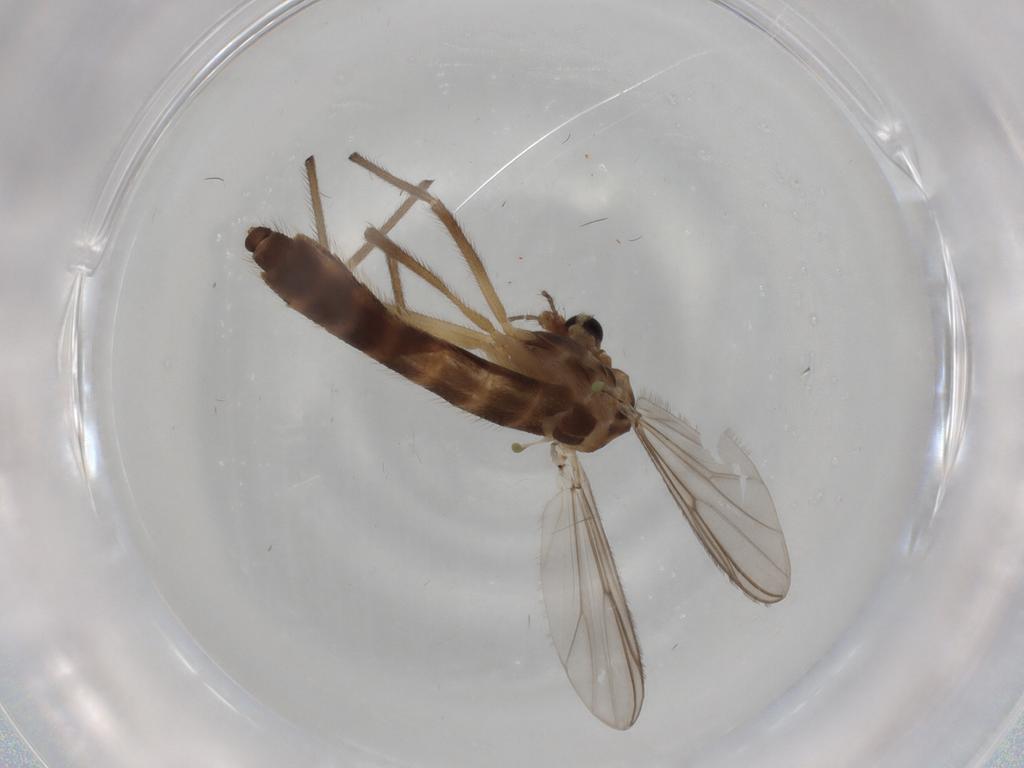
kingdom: Animalia
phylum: Arthropoda
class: Insecta
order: Diptera
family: Chironomidae
